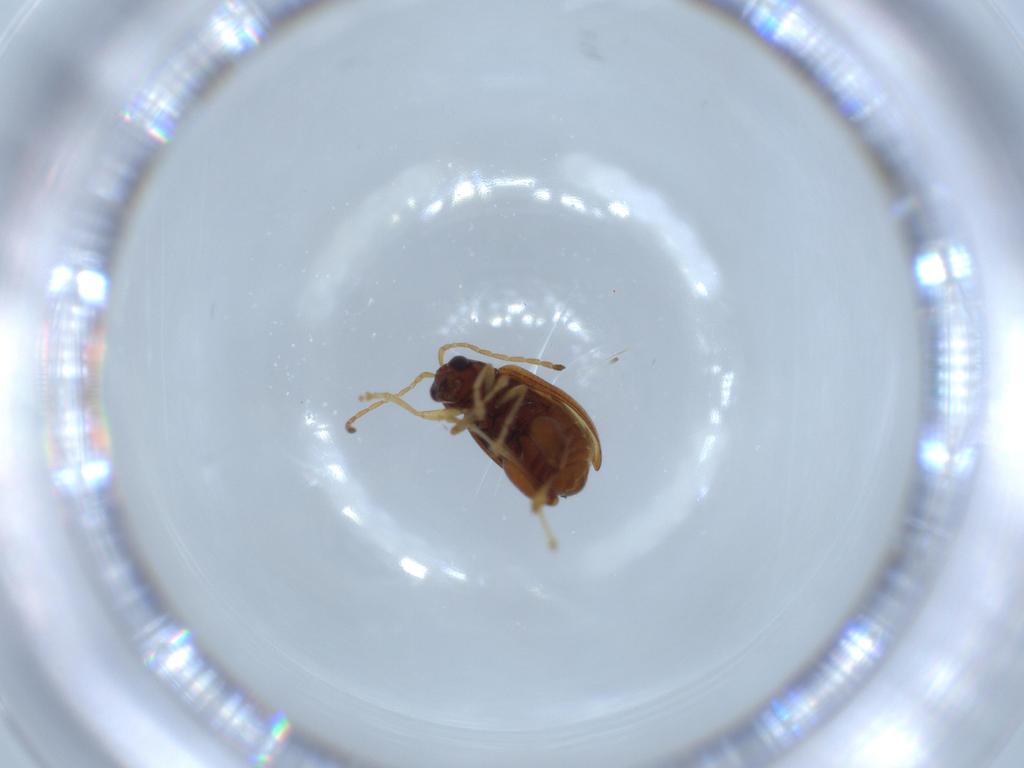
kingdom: Animalia
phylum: Arthropoda
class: Insecta
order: Coleoptera
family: Chrysomelidae
